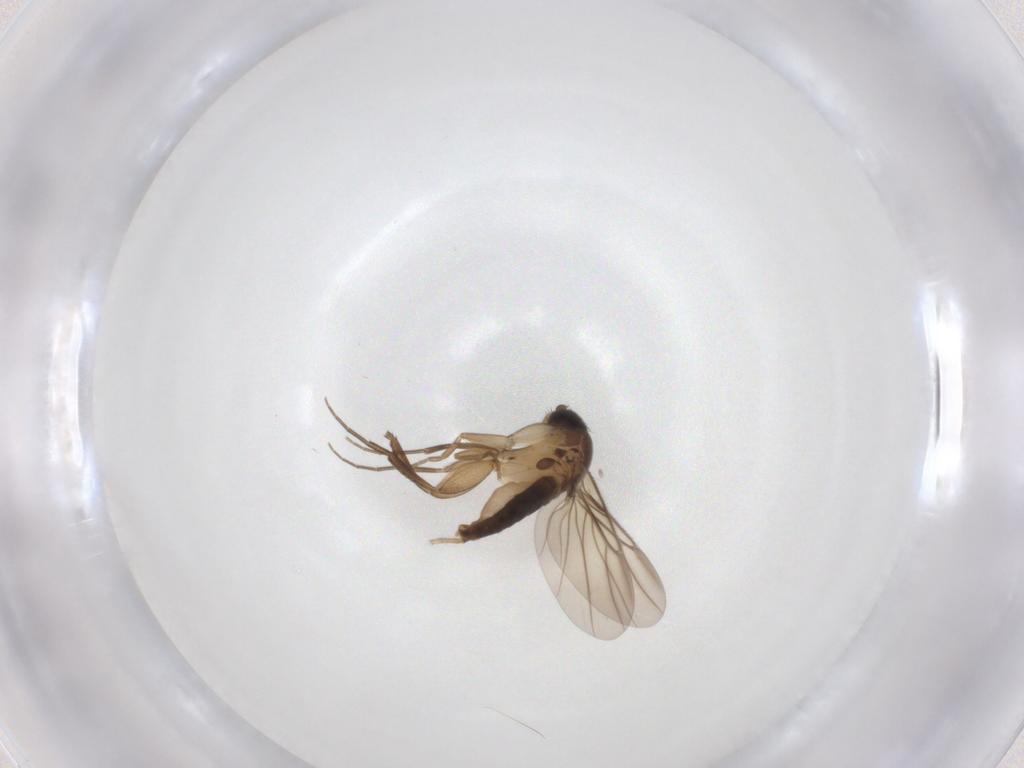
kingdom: Animalia
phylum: Arthropoda
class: Insecta
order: Diptera
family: Phoridae
